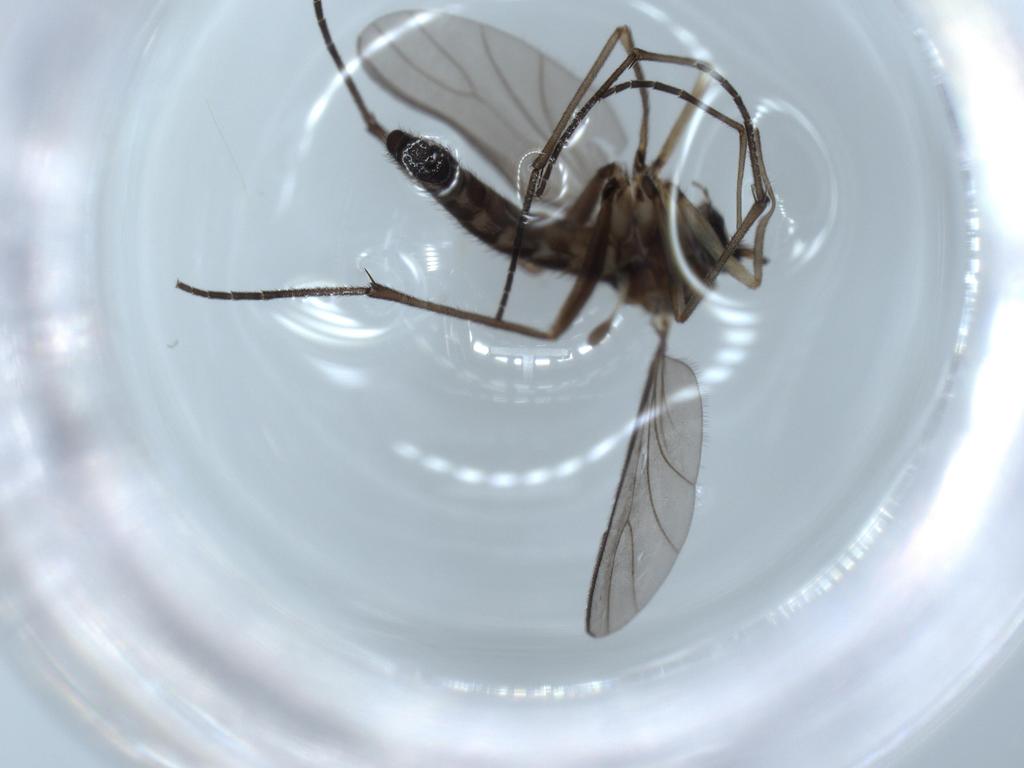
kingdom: Animalia
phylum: Arthropoda
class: Insecta
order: Diptera
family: Sciaridae
